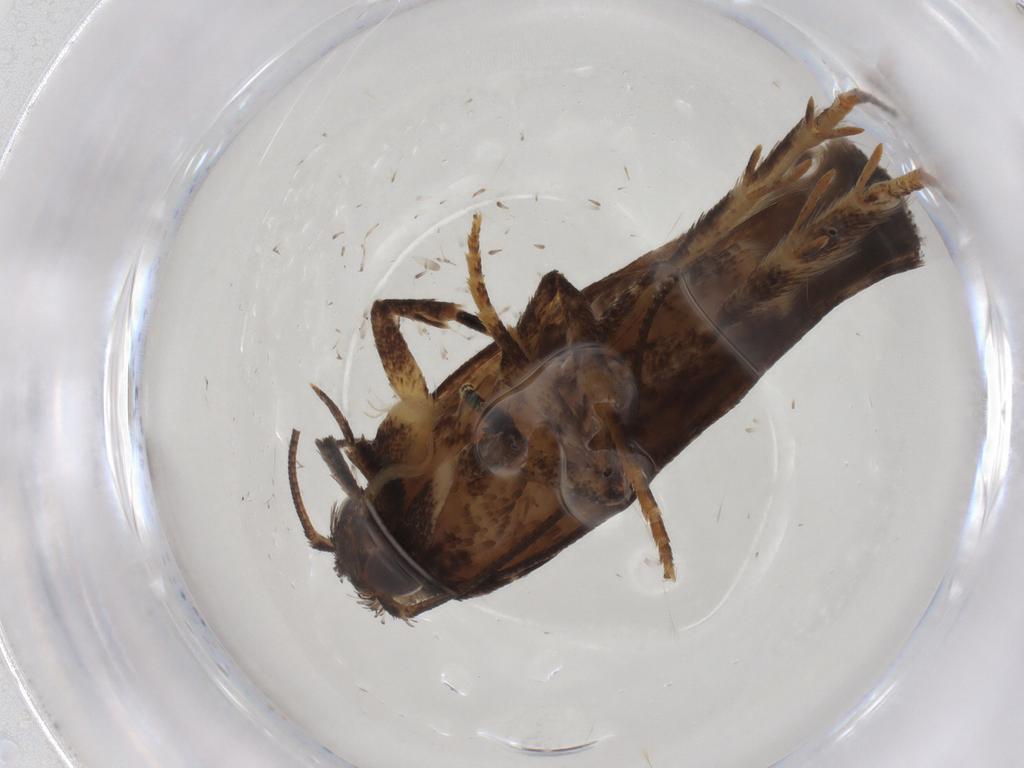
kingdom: Animalia
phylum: Arthropoda
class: Insecta
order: Lepidoptera
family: Gelechiidae
